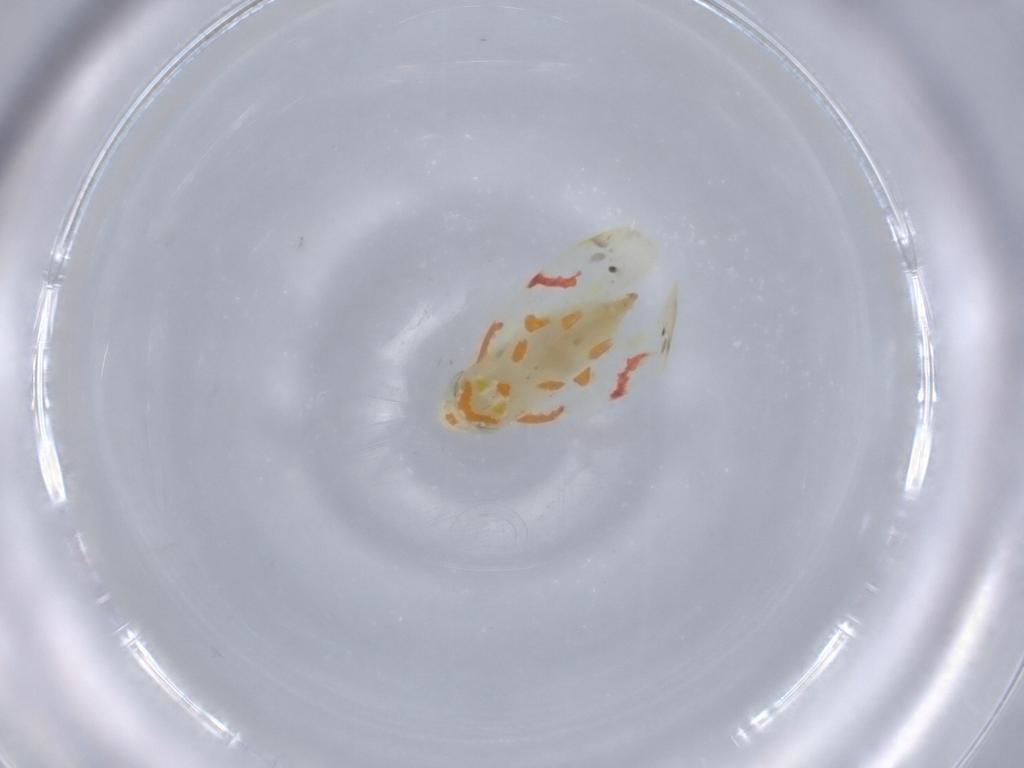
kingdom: Animalia
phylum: Arthropoda
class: Insecta
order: Hemiptera
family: Cicadellidae
